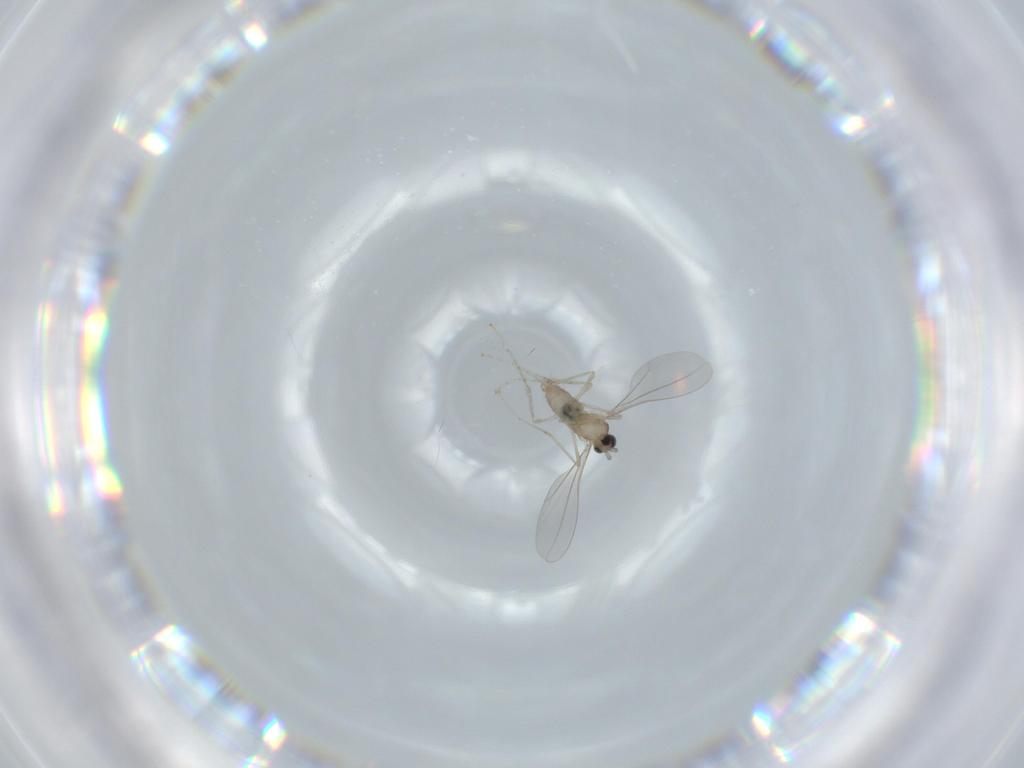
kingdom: Animalia
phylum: Arthropoda
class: Insecta
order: Diptera
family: Cecidomyiidae
